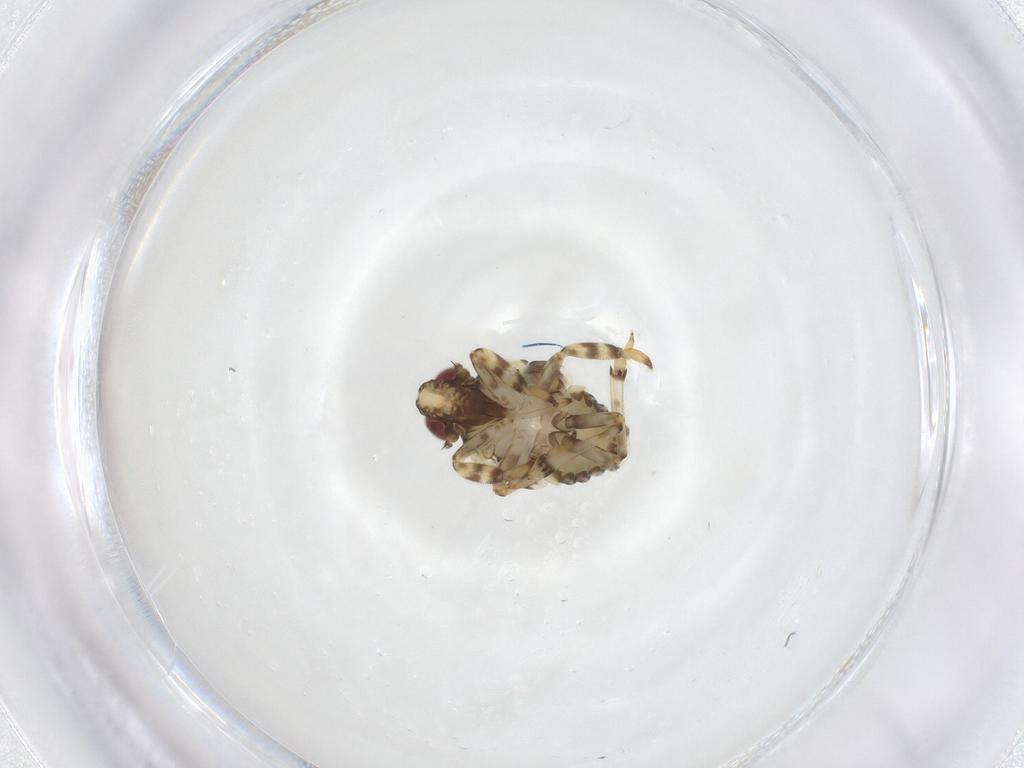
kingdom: Animalia
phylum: Arthropoda
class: Insecta
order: Hemiptera
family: Issidae
